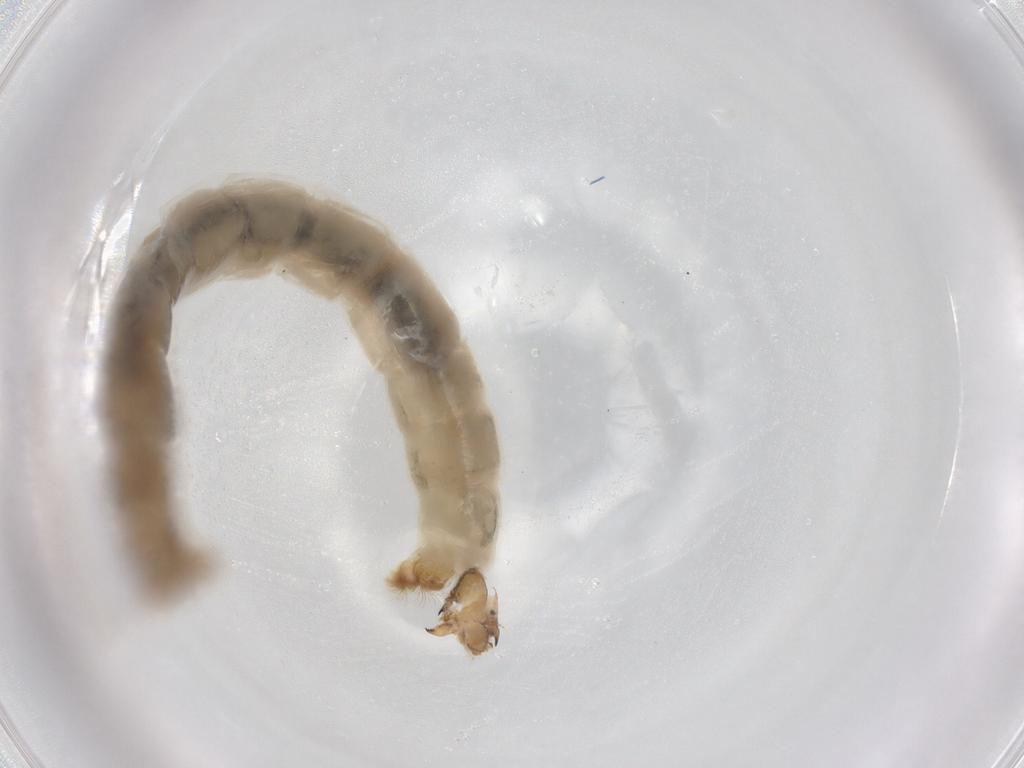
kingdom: Animalia
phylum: Arthropoda
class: Insecta
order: Diptera
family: Chironomidae
